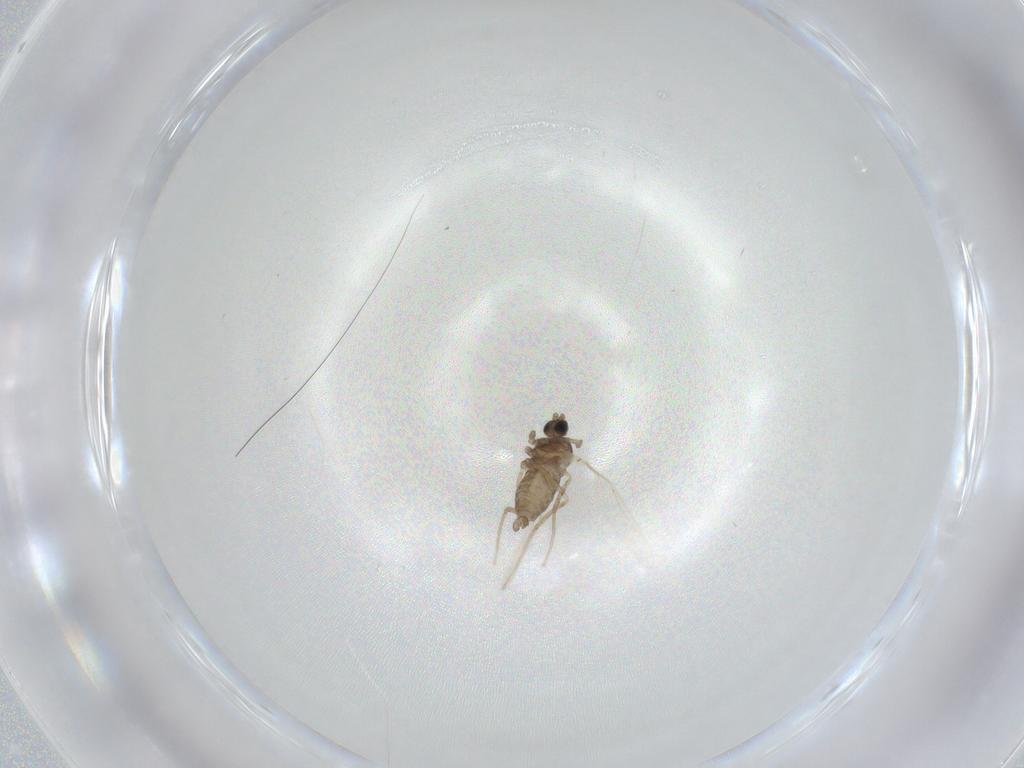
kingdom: Animalia
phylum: Arthropoda
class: Insecta
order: Diptera
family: Cecidomyiidae
